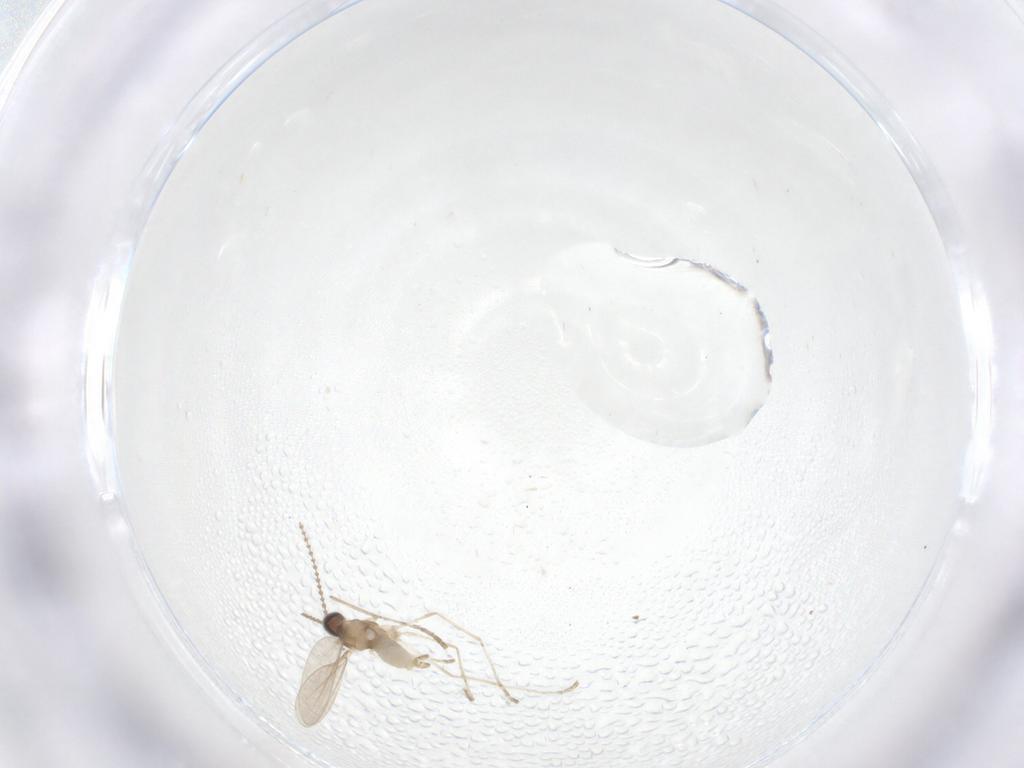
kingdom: Animalia
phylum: Arthropoda
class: Insecta
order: Diptera
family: Cecidomyiidae
